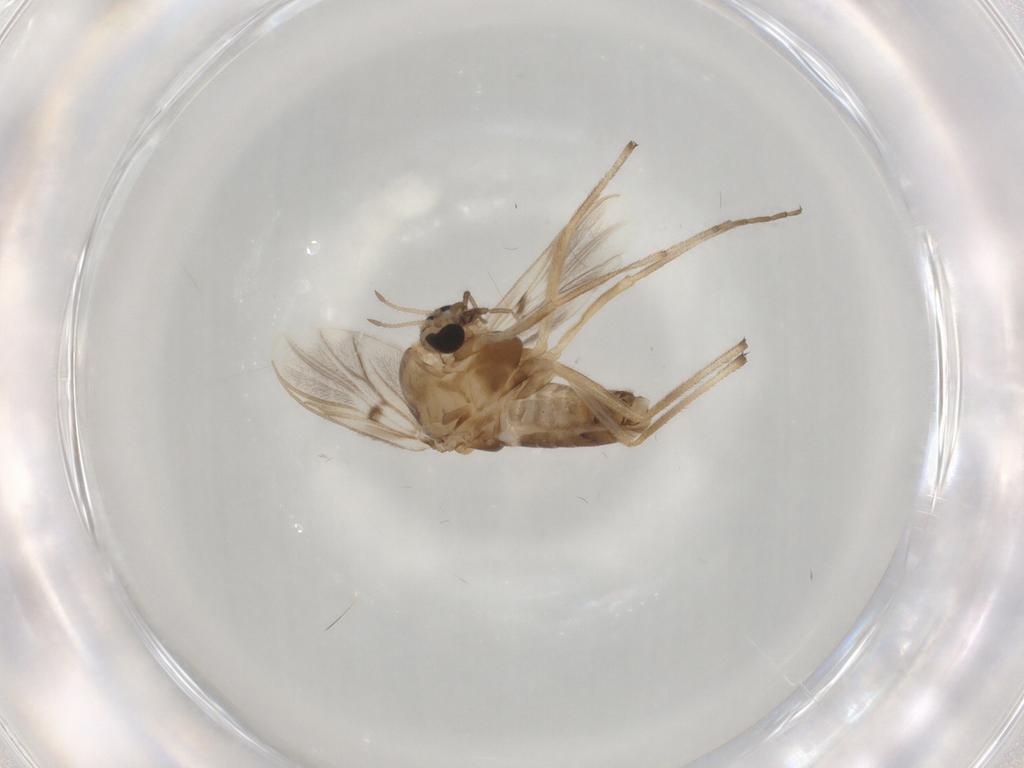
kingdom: Animalia
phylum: Arthropoda
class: Insecta
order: Diptera
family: Chironomidae
